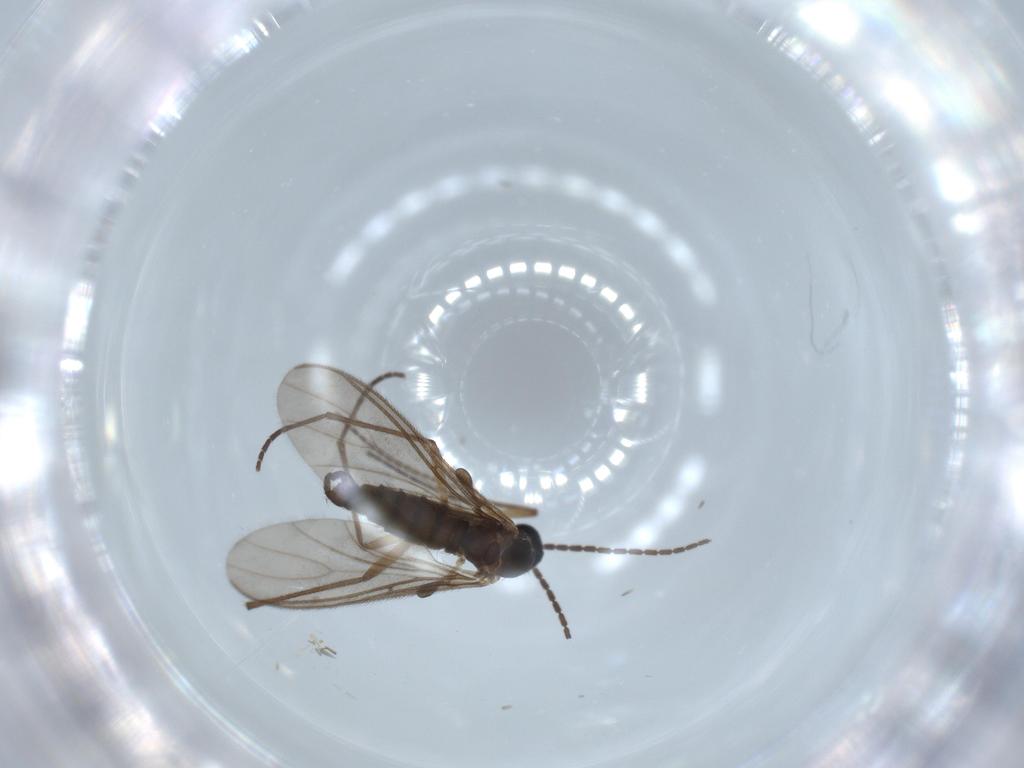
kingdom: Animalia
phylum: Arthropoda
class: Insecta
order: Diptera
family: Sciaridae
